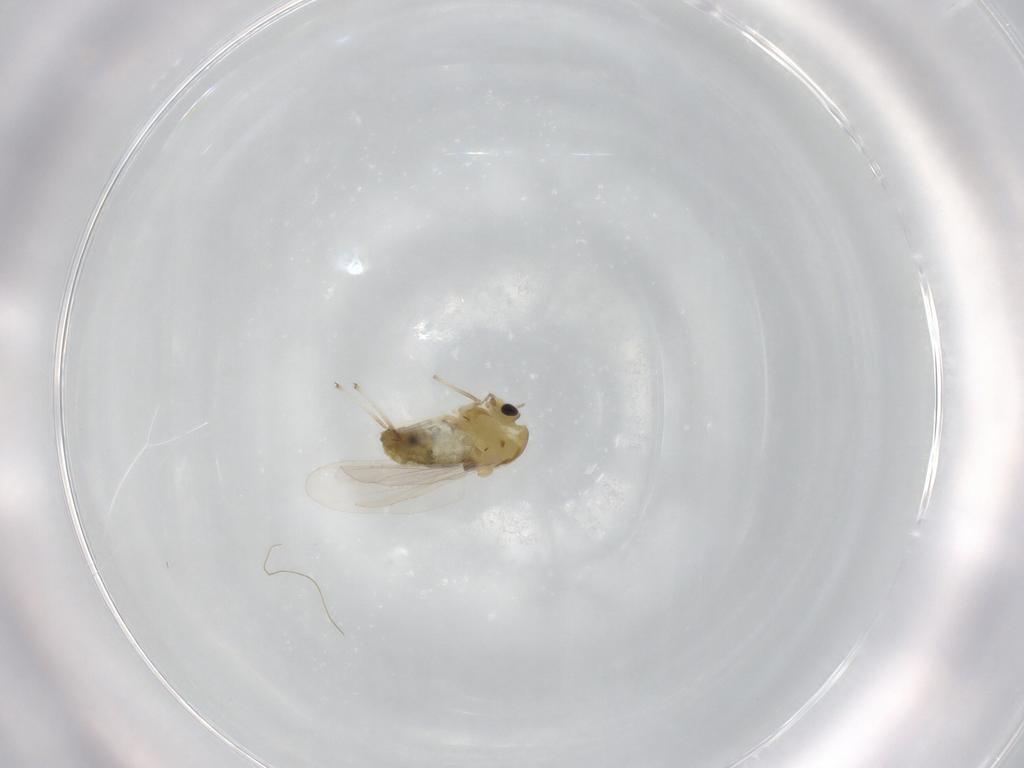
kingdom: Animalia
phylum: Arthropoda
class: Insecta
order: Diptera
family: Chironomidae
